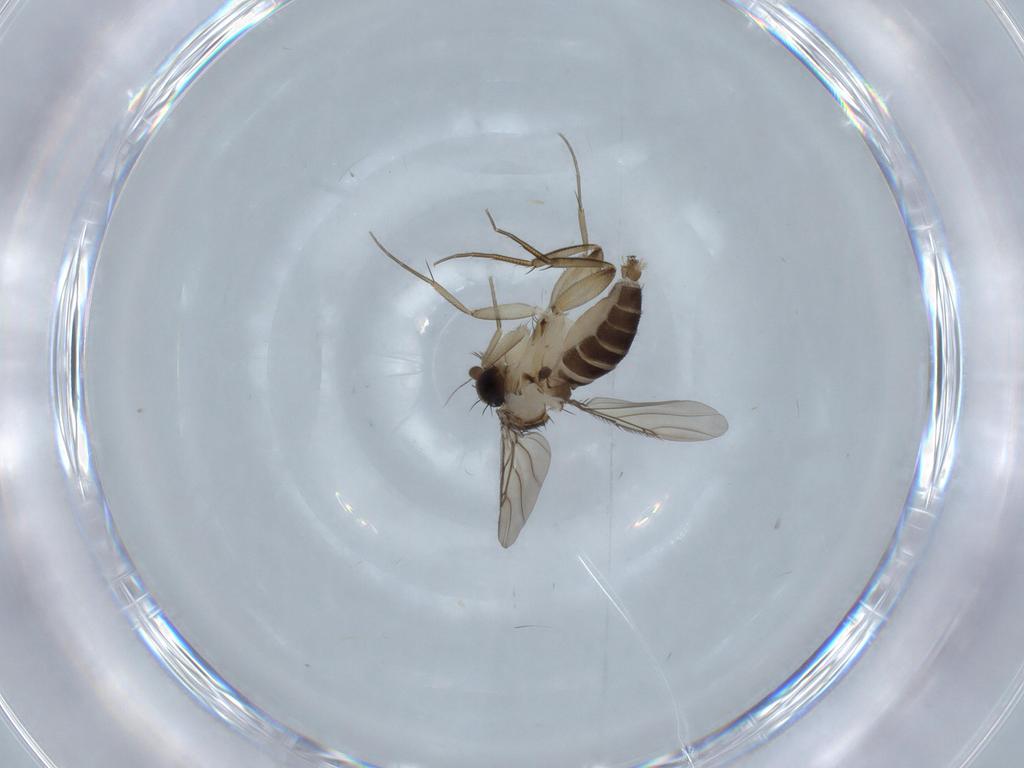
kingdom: Animalia
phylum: Arthropoda
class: Insecta
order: Diptera
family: Phoridae
